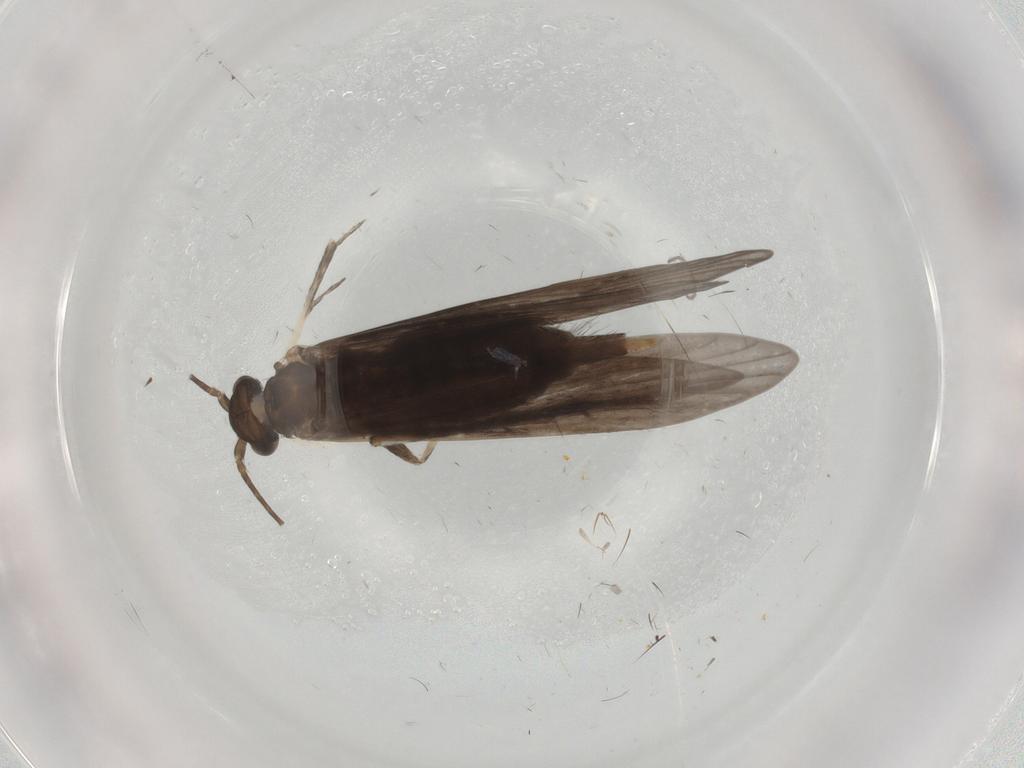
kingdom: Animalia
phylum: Arthropoda
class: Insecta
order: Trichoptera
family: Xiphocentronidae
